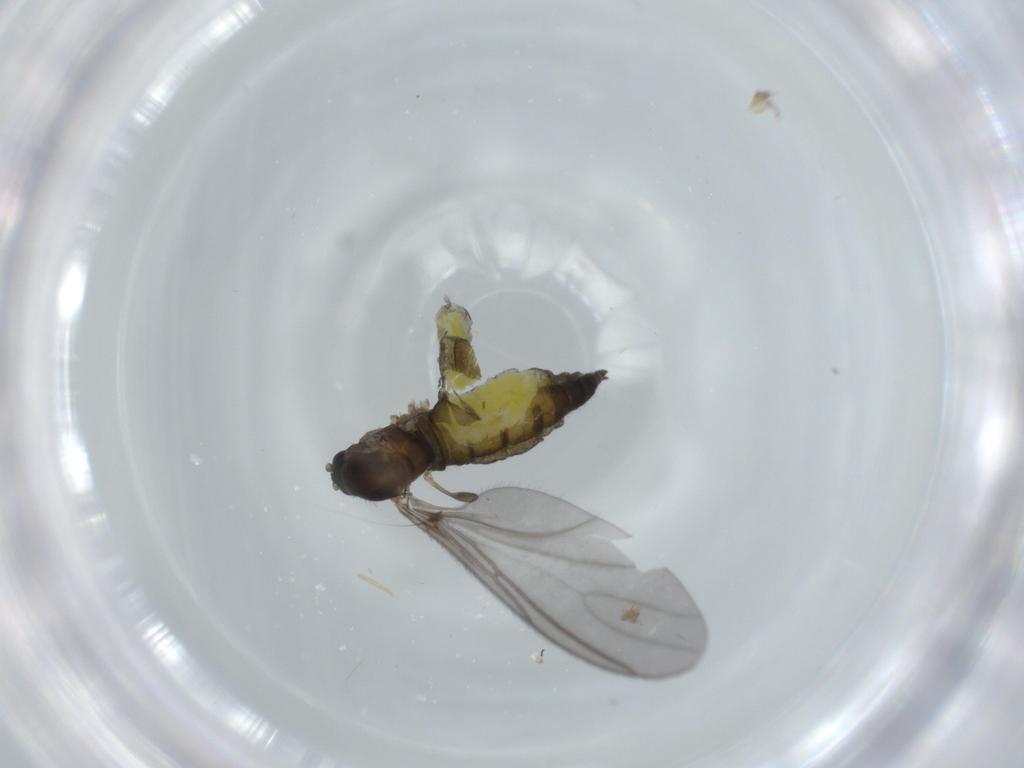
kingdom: Animalia
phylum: Arthropoda
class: Insecta
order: Diptera
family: Sciaridae
